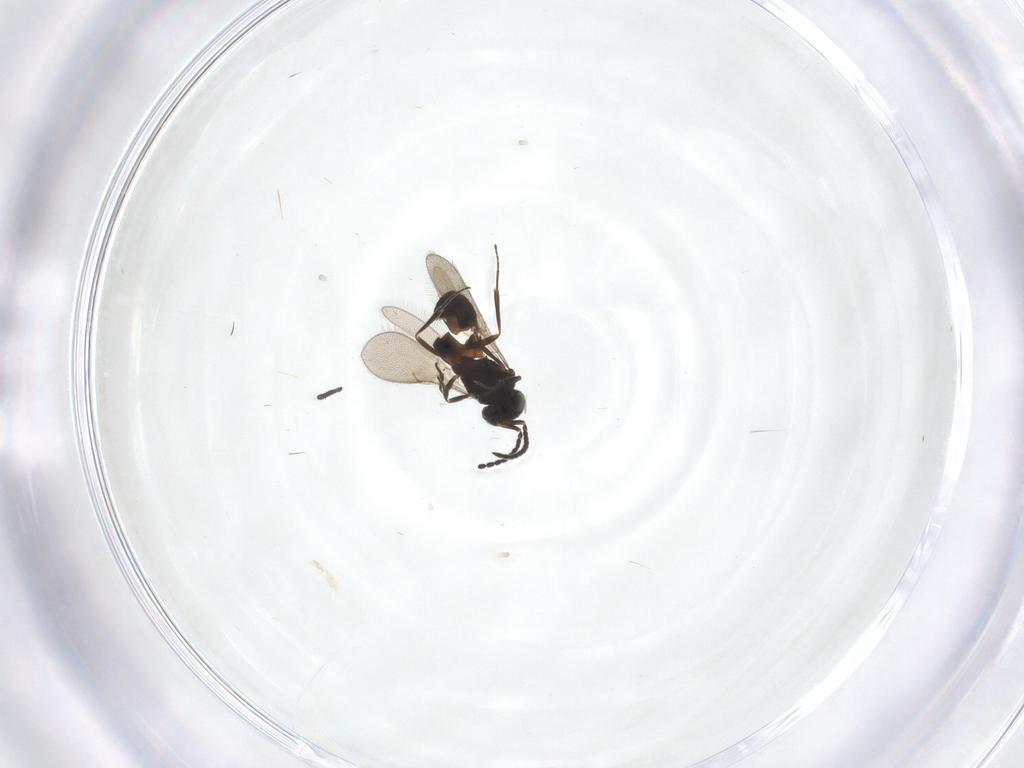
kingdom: Animalia
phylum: Arthropoda
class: Insecta
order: Hymenoptera
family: Scelionidae
